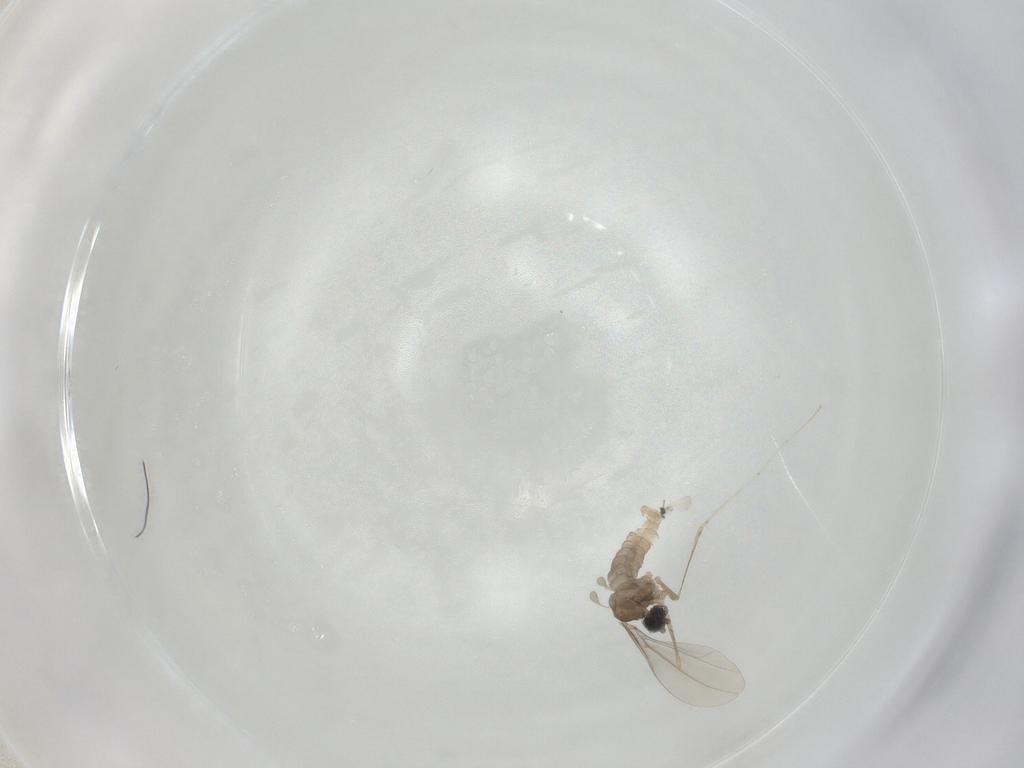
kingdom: Animalia
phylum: Arthropoda
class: Insecta
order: Diptera
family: Cecidomyiidae
